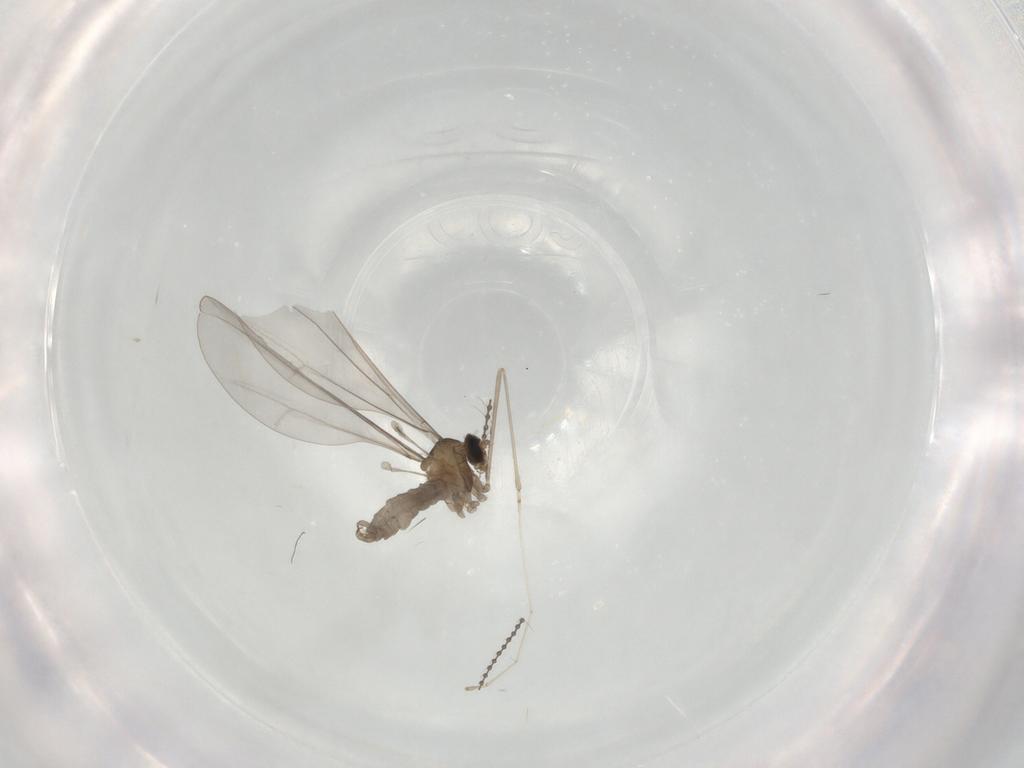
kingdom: Animalia
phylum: Arthropoda
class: Insecta
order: Diptera
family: Cecidomyiidae
